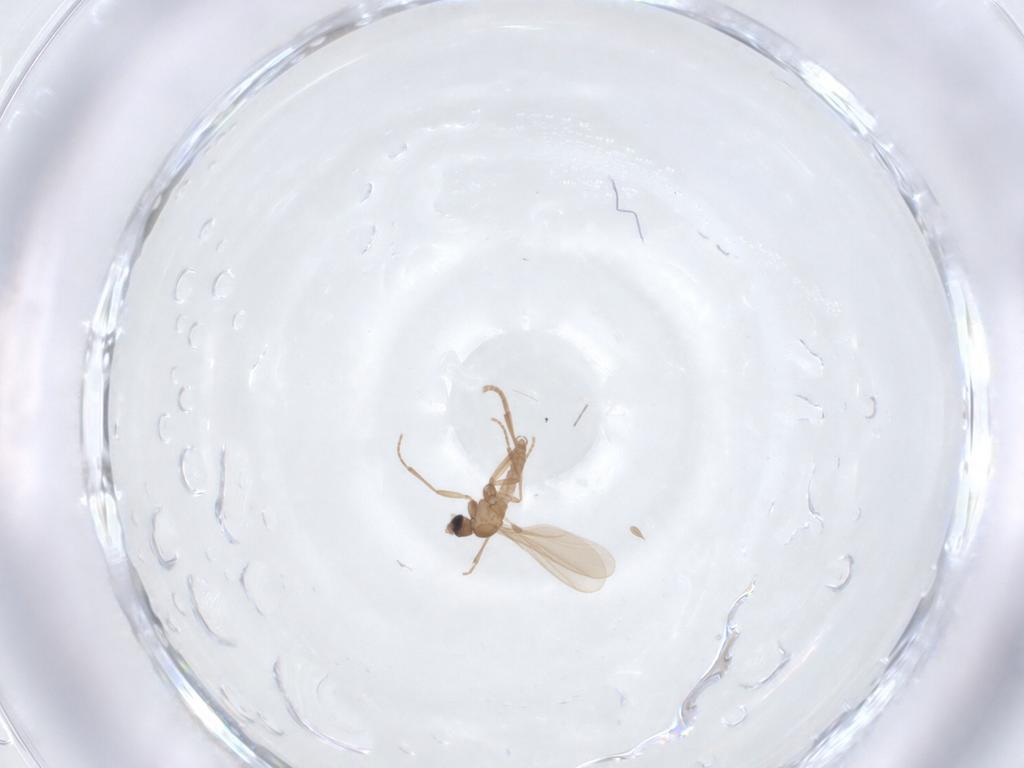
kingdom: Animalia
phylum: Arthropoda
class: Insecta
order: Diptera
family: Sciaridae
